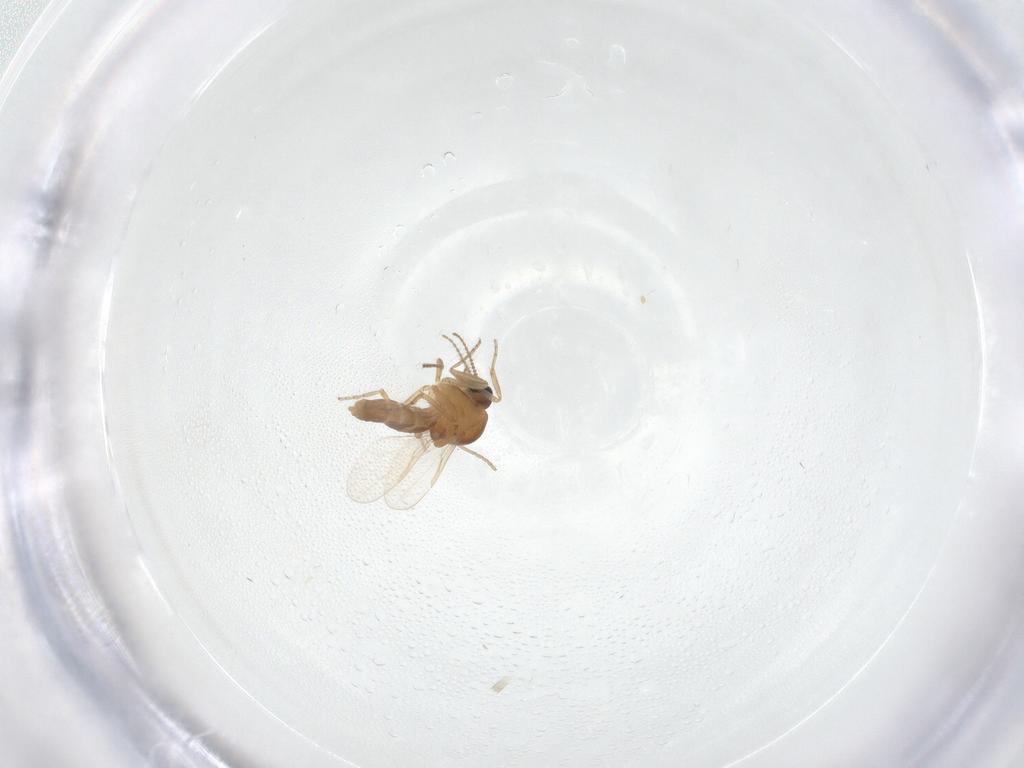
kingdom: Animalia
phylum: Arthropoda
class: Insecta
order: Diptera
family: Ceratopogonidae
